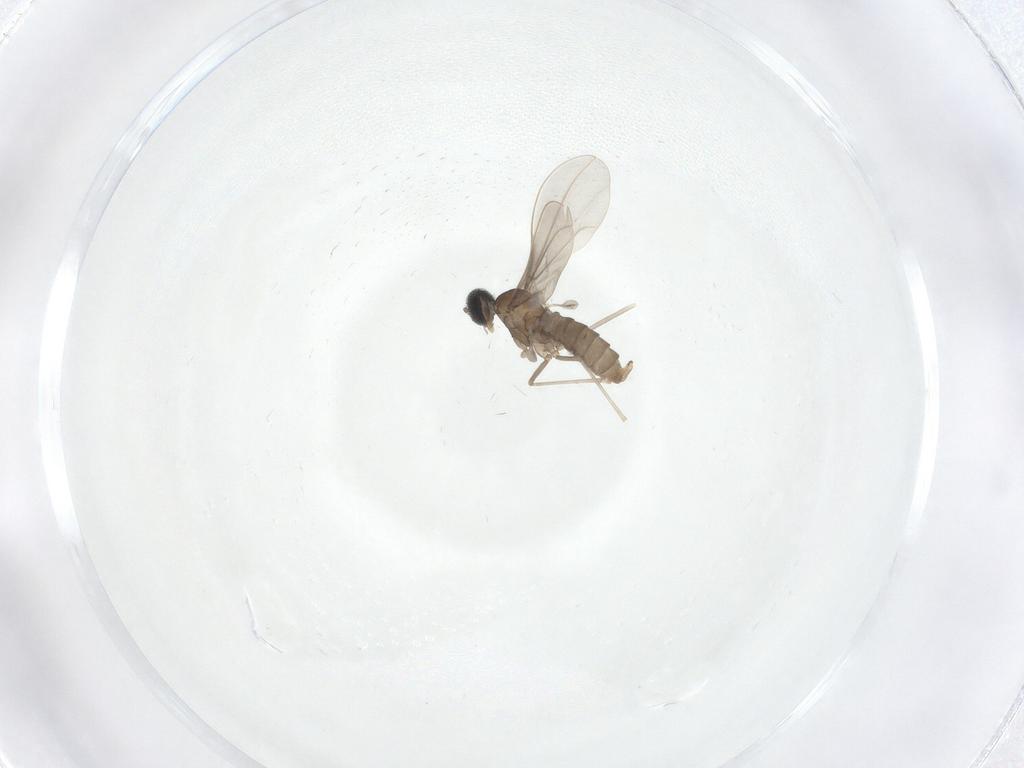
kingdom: Animalia
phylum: Arthropoda
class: Insecta
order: Diptera
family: Cecidomyiidae
